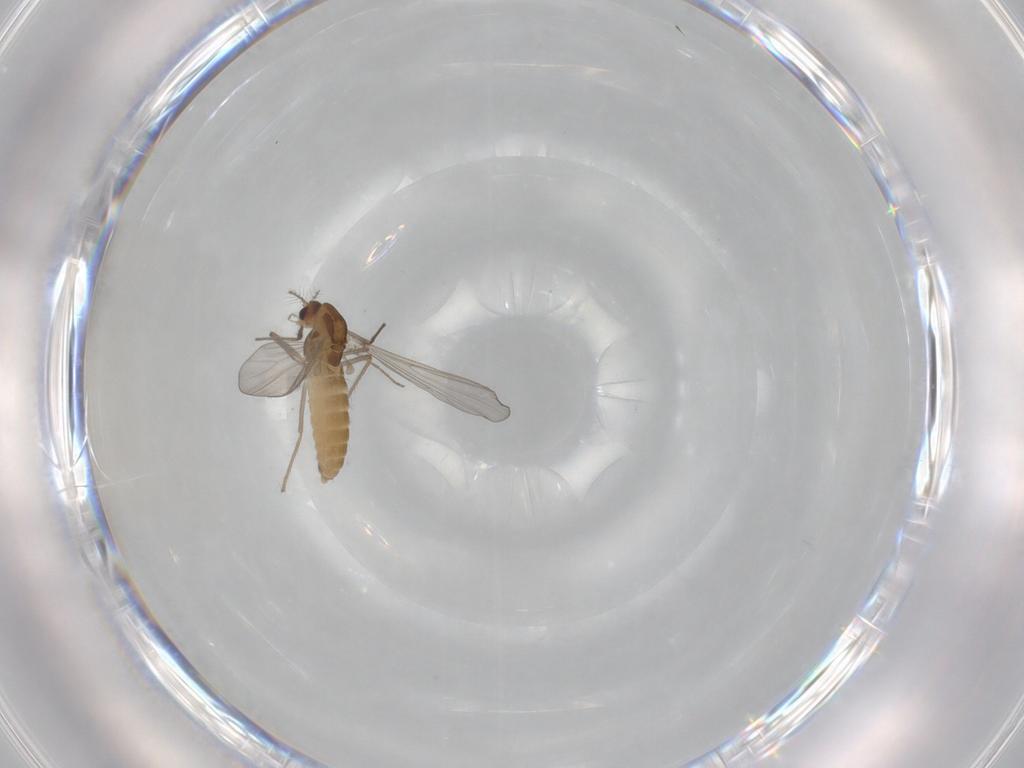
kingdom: Animalia
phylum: Arthropoda
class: Insecta
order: Diptera
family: Chironomidae
